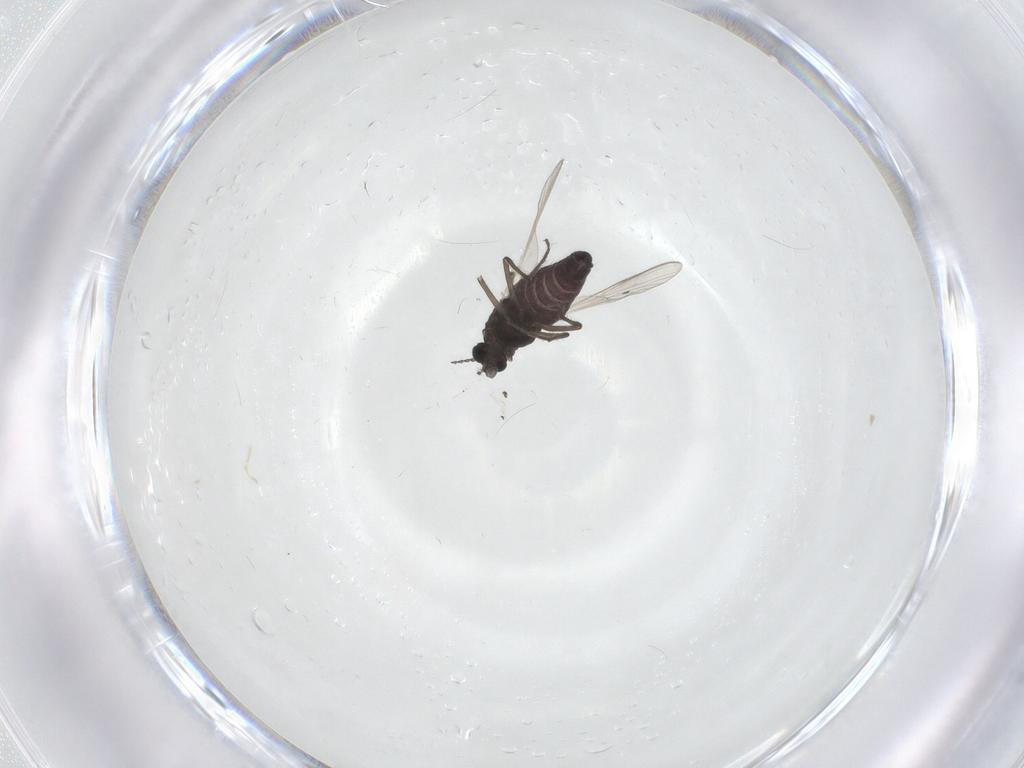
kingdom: Animalia
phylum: Arthropoda
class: Insecta
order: Diptera
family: Chironomidae
